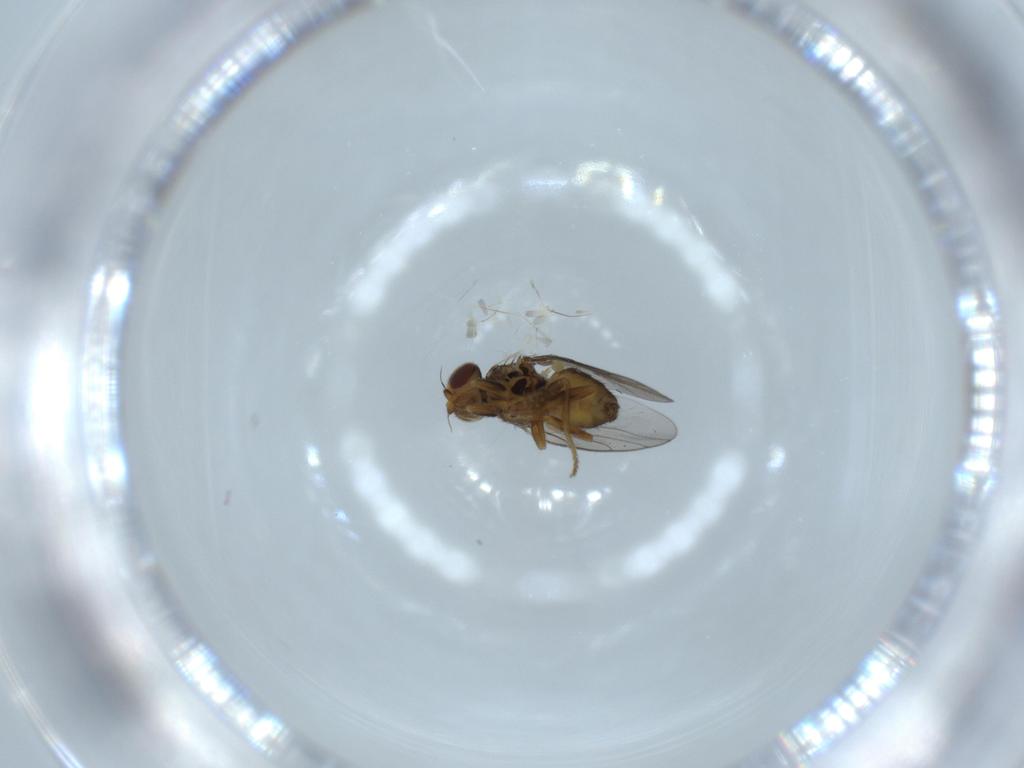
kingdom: Animalia
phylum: Arthropoda
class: Insecta
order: Diptera
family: Chloropidae
